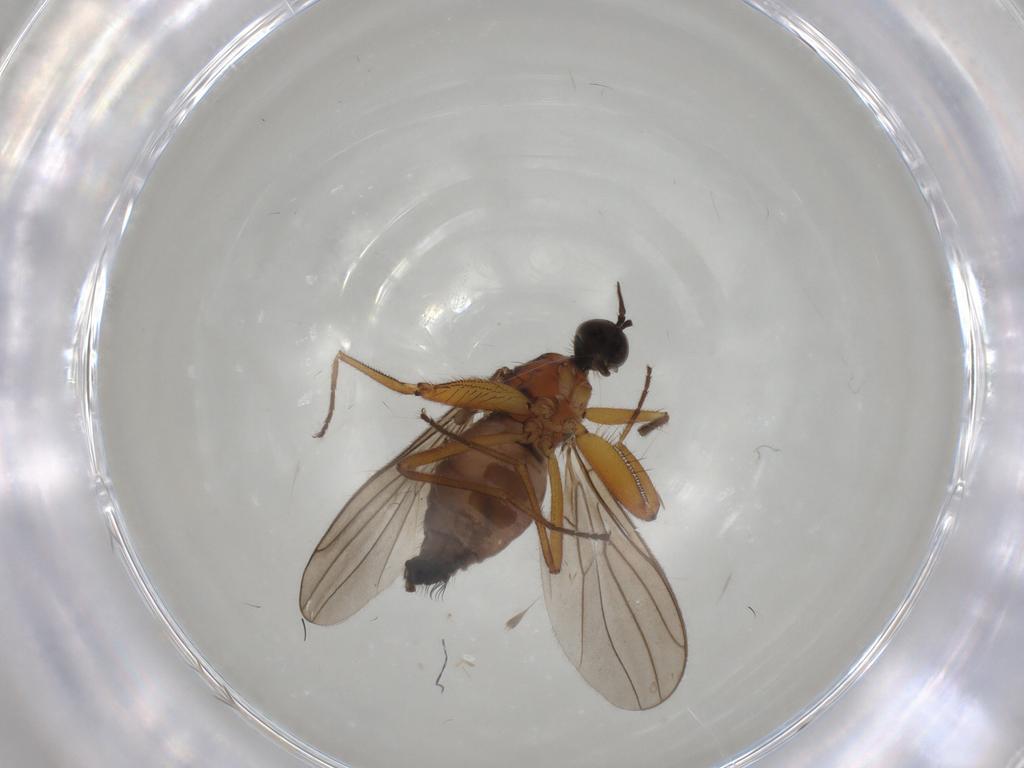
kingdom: Animalia
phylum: Arthropoda
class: Insecta
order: Diptera
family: Hybotidae
